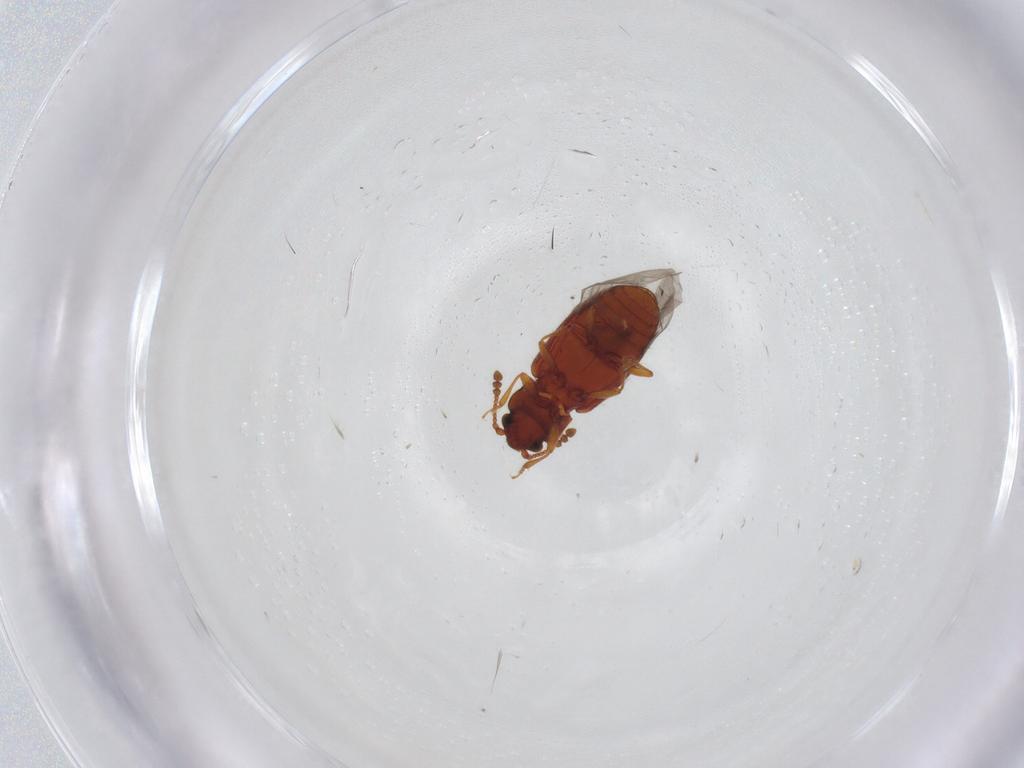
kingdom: Animalia
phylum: Arthropoda
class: Insecta
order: Coleoptera
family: Cryptophagidae
